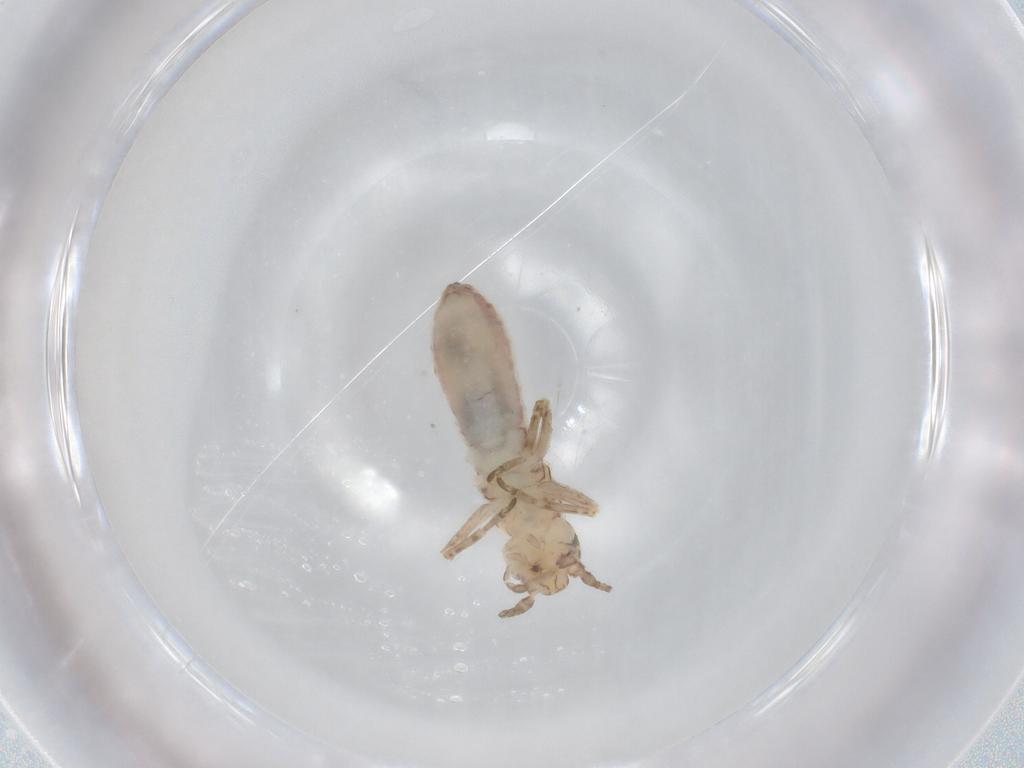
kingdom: Animalia
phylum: Arthropoda
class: Insecta
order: Orthoptera
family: Mogoplistidae
